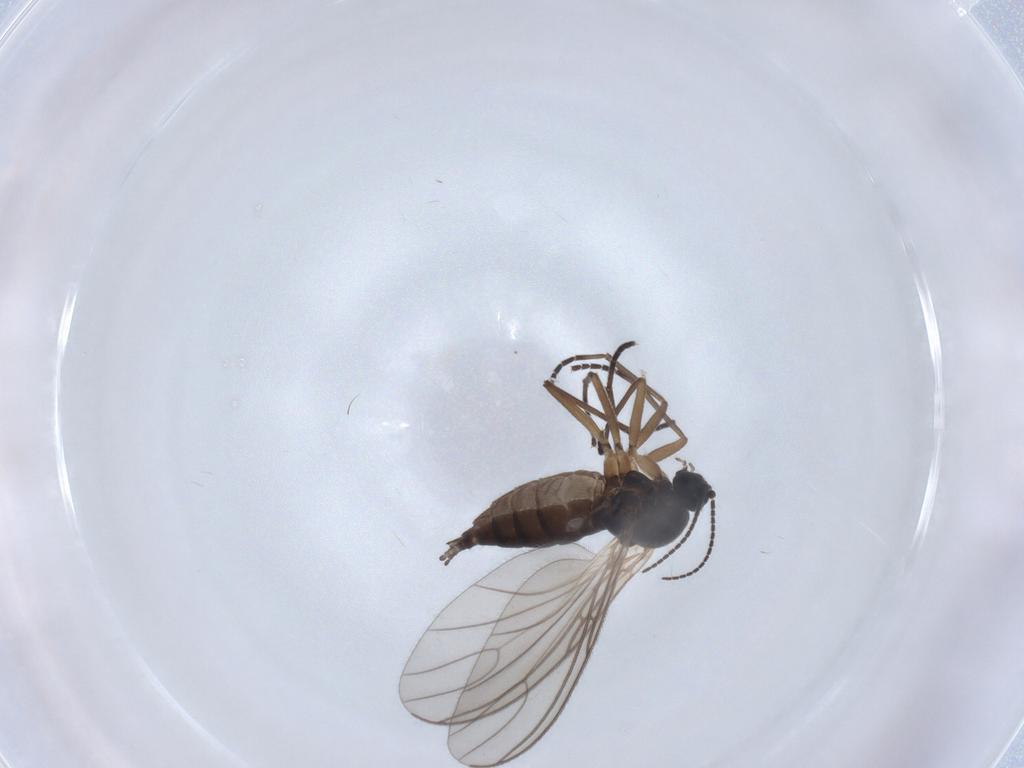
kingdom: Animalia
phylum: Arthropoda
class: Insecta
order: Diptera
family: Sciaridae
